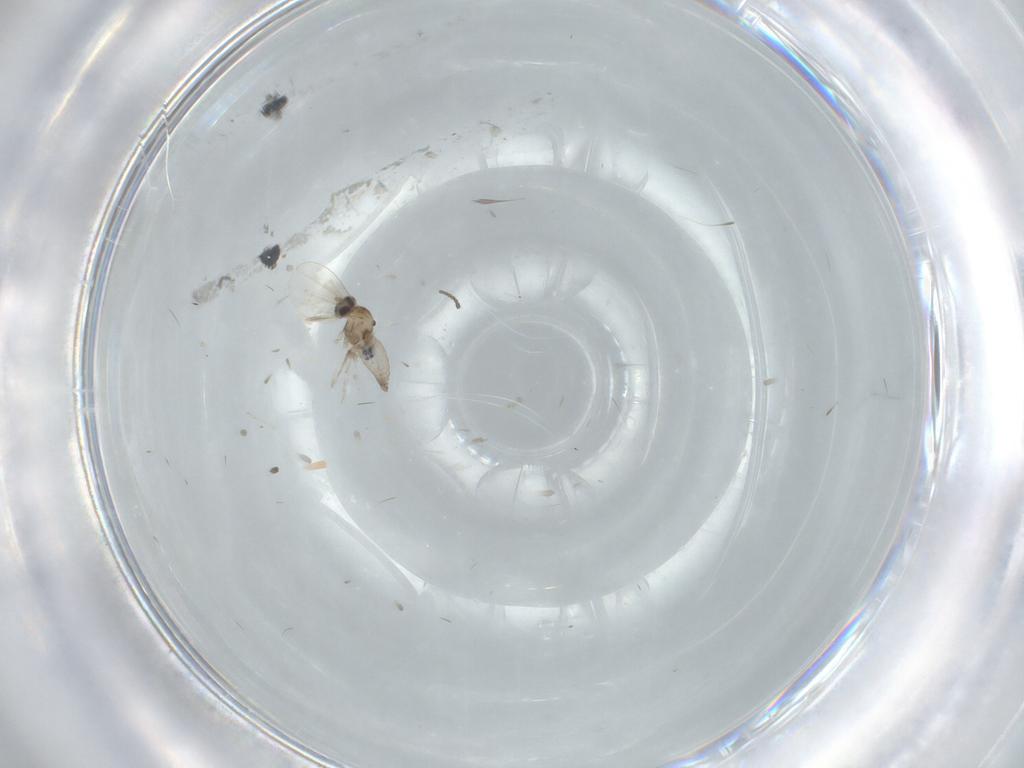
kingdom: Animalia
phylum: Arthropoda
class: Insecta
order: Diptera
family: Cecidomyiidae
